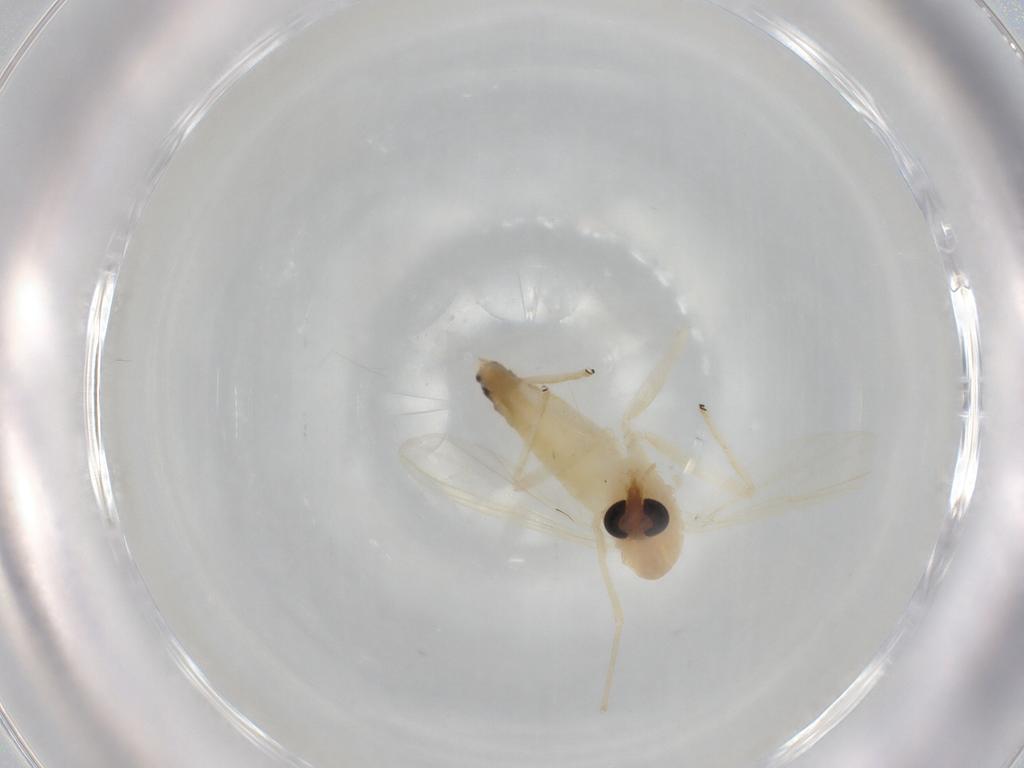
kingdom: Animalia
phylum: Arthropoda
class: Insecta
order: Diptera
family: Chironomidae
